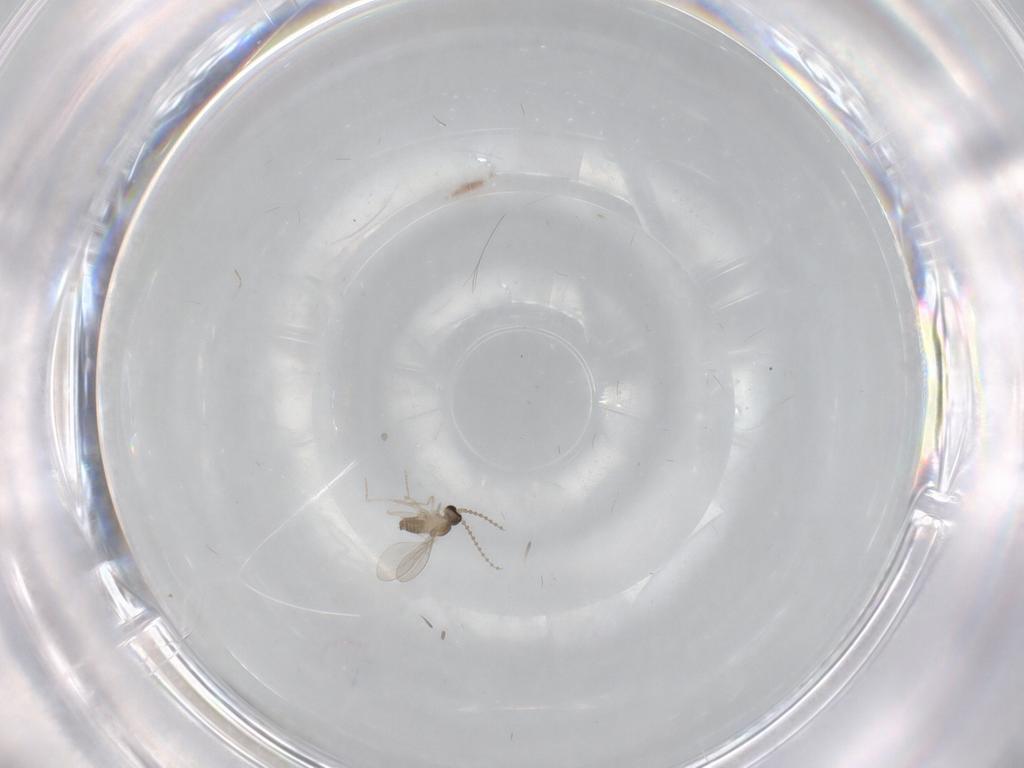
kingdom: Animalia
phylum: Arthropoda
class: Insecta
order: Diptera
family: Cecidomyiidae
